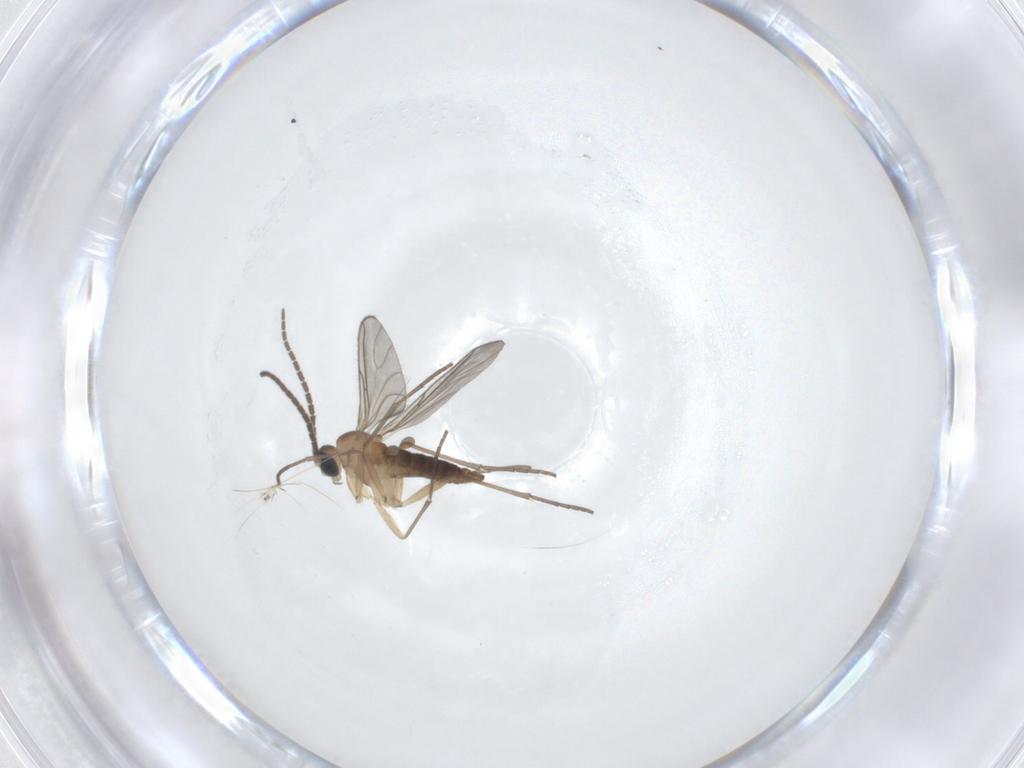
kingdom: Animalia
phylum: Arthropoda
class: Insecta
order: Diptera
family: Sciaridae
